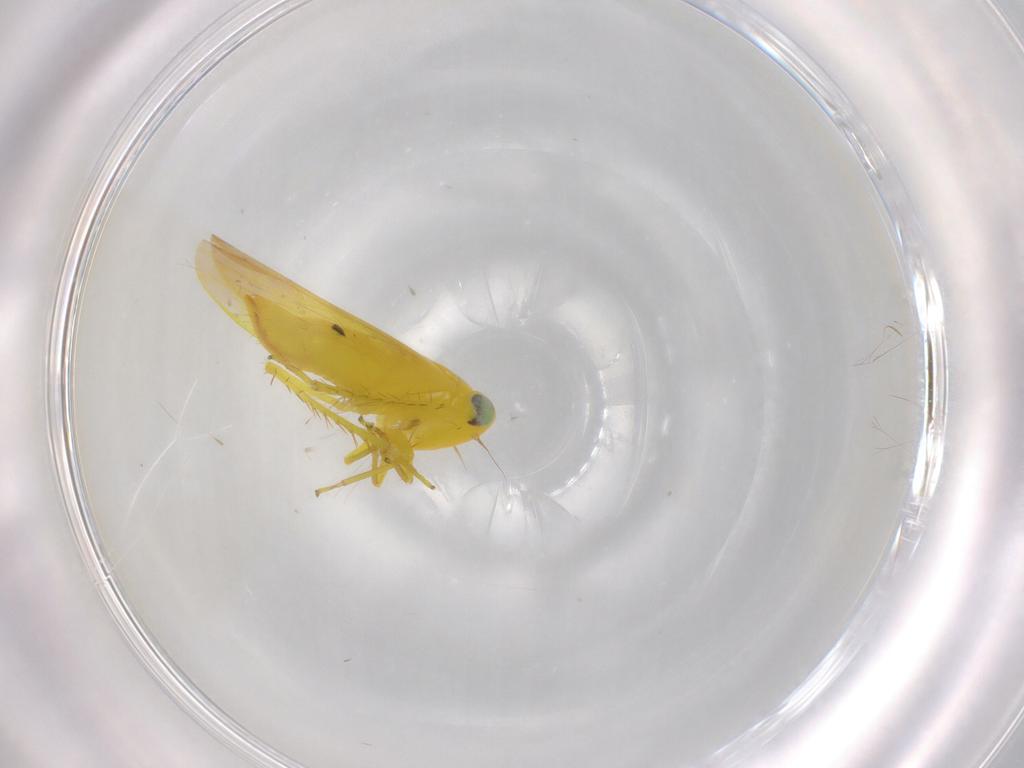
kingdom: Animalia
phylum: Arthropoda
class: Insecta
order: Hemiptera
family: Cicadellidae
